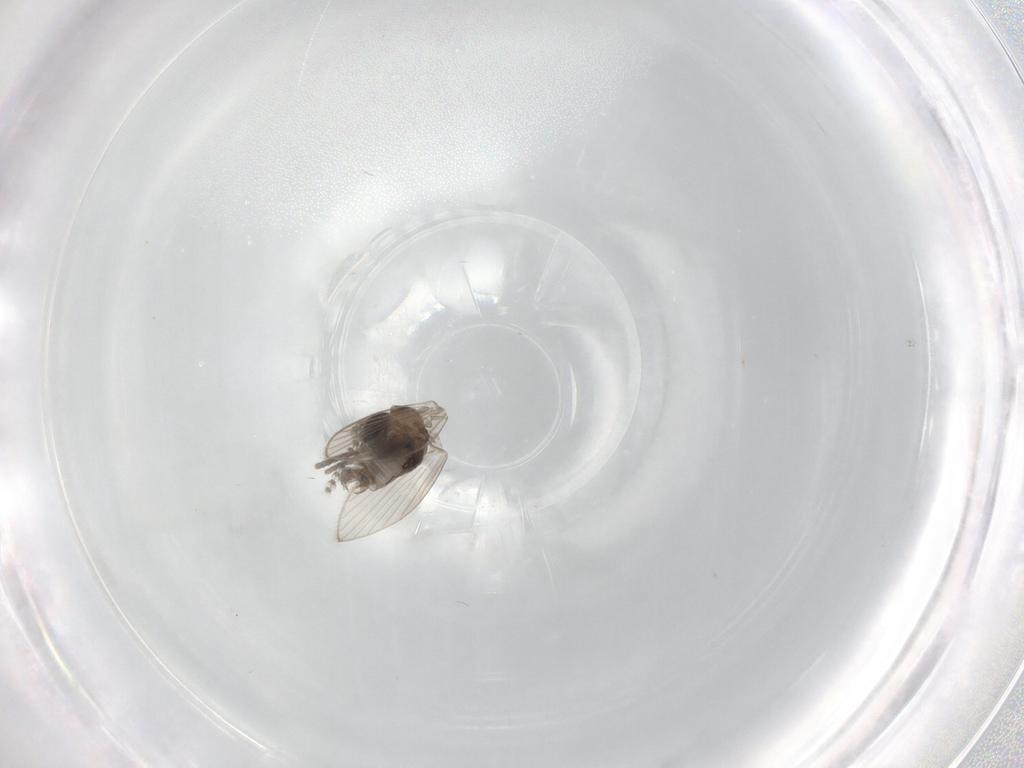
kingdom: Animalia
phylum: Arthropoda
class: Insecta
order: Diptera
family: Psychodidae
